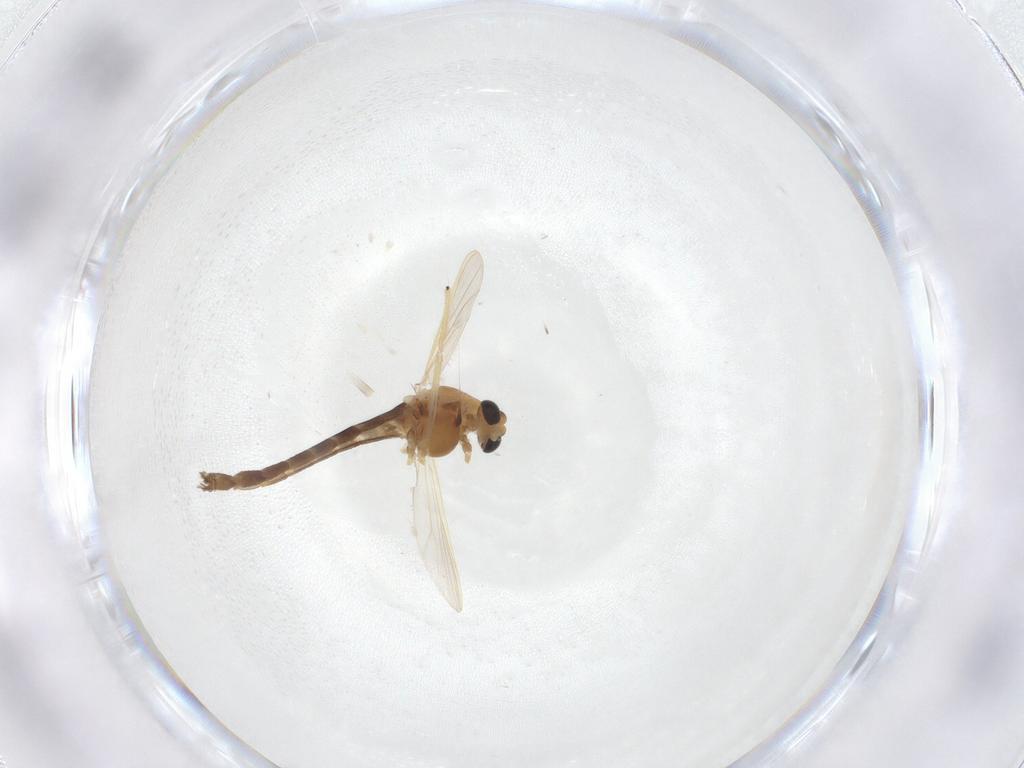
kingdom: Animalia
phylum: Arthropoda
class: Insecta
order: Diptera
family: Chironomidae
